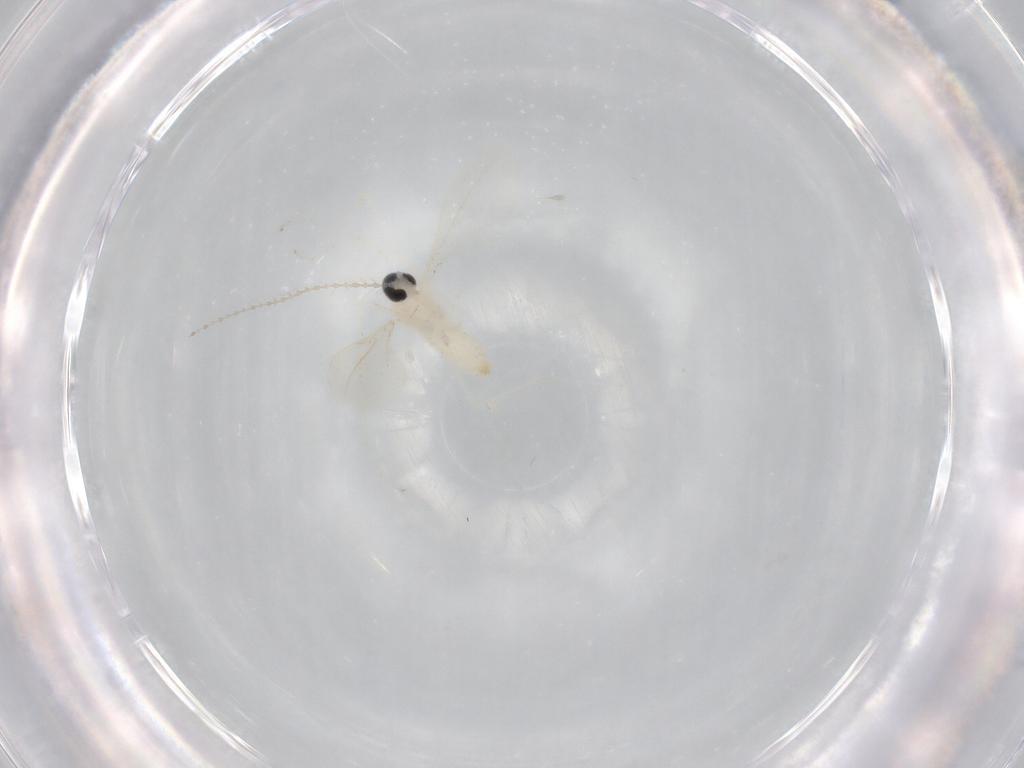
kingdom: Animalia
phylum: Arthropoda
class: Insecta
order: Diptera
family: Cecidomyiidae
